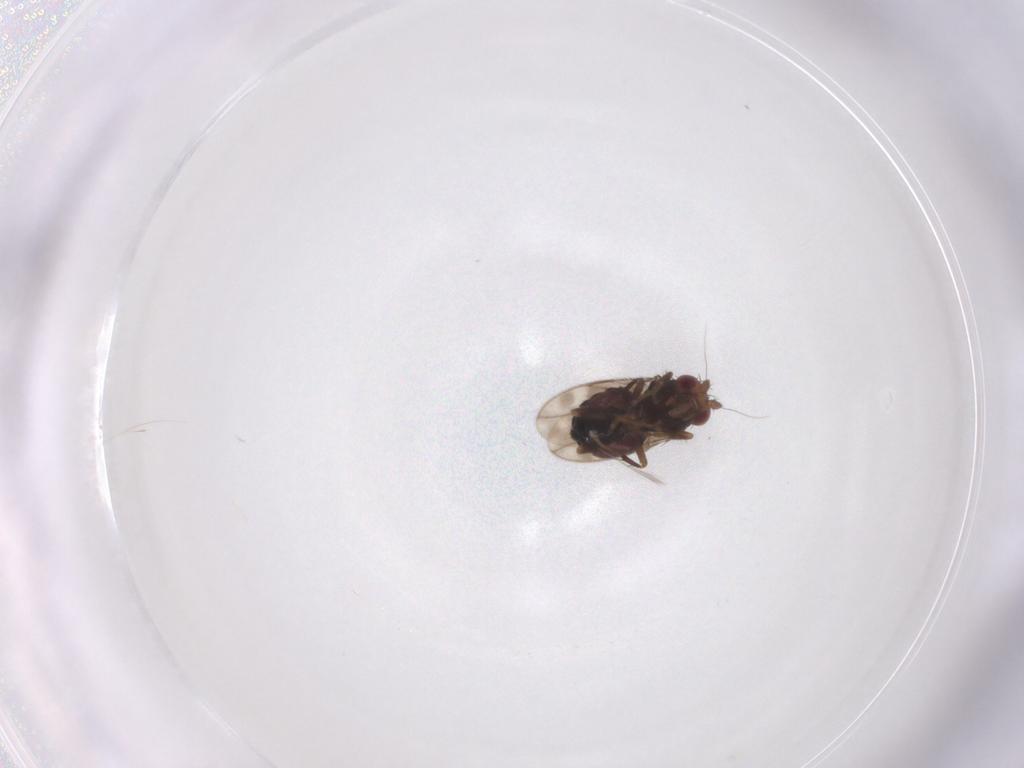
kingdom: Animalia
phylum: Arthropoda
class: Insecta
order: Diptera
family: Sphaeroceridae
